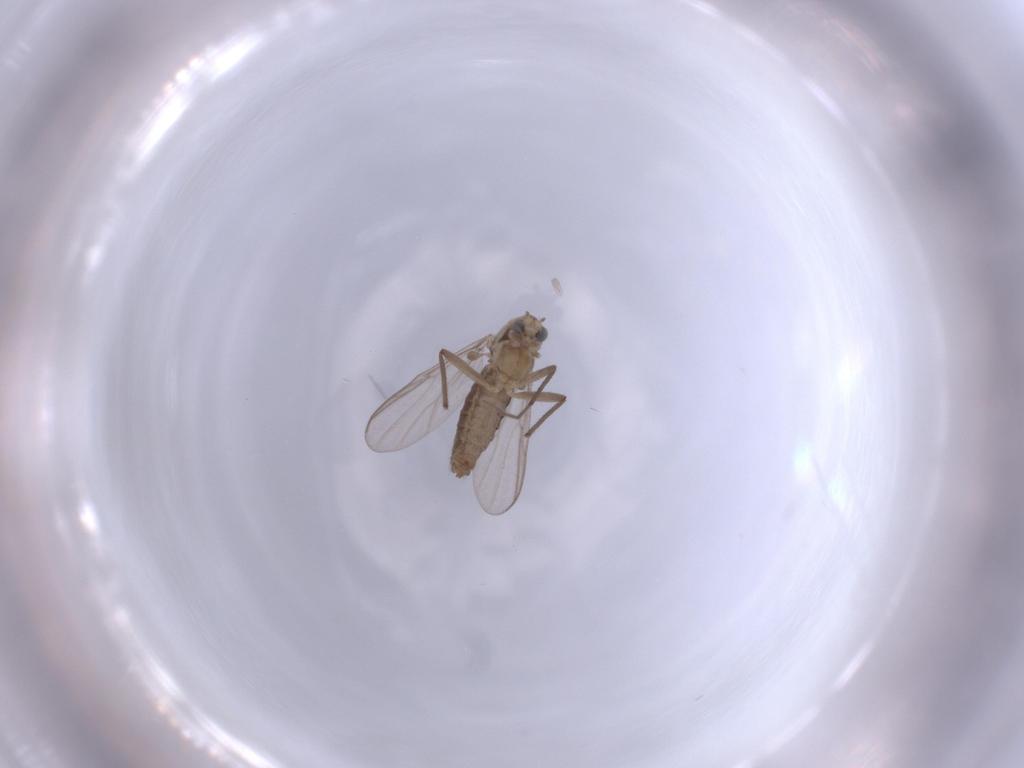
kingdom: Animalia
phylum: Arthropoda
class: Insecta
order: Diptera
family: Chironomidae
